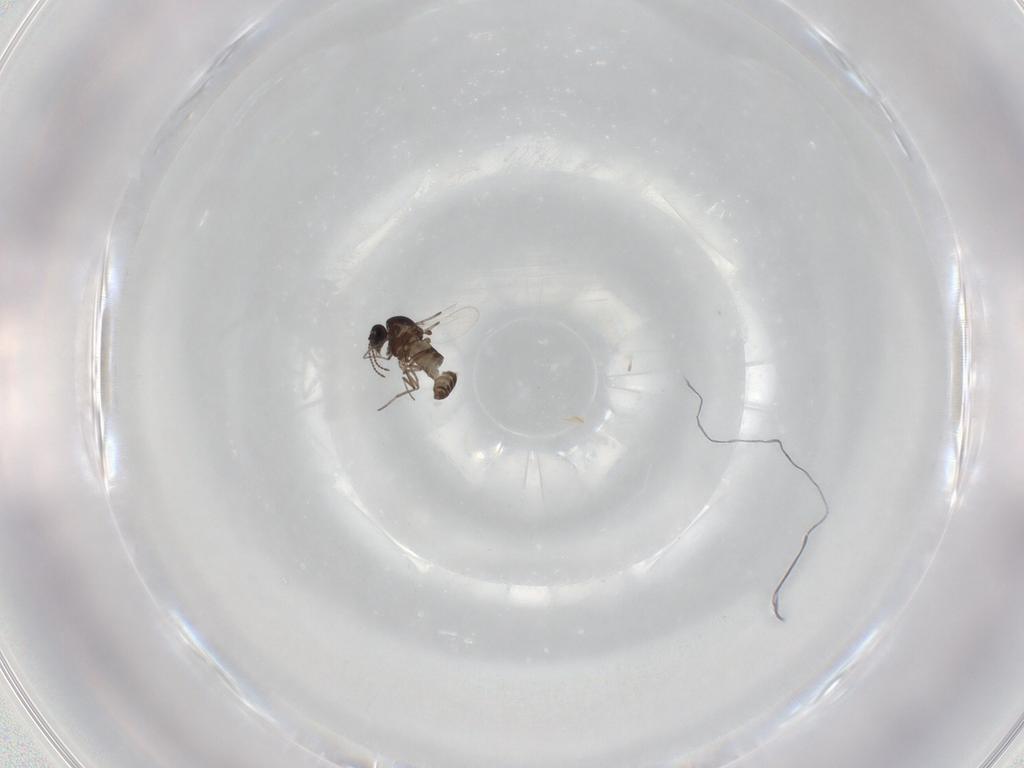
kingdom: Animalia
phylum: Arthropoda
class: Insecta
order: Diptera
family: Ceratopogonidae
